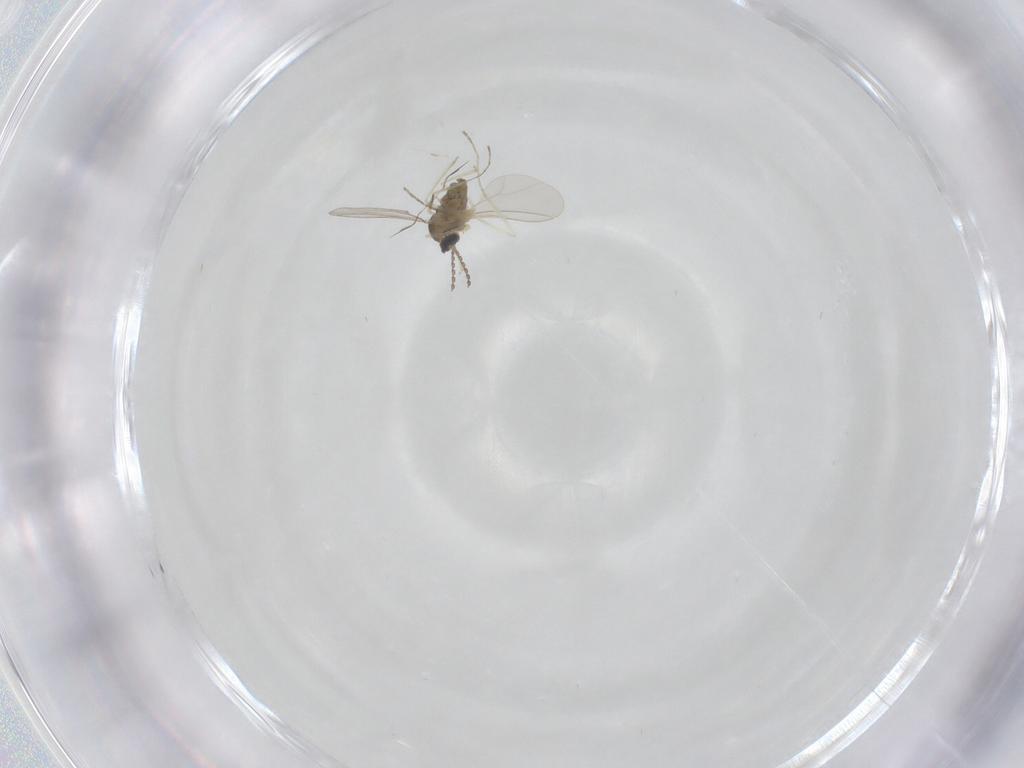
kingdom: Animalia
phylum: Arthropoda
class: Insecta
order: Diptera
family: Cecidomyiidae
